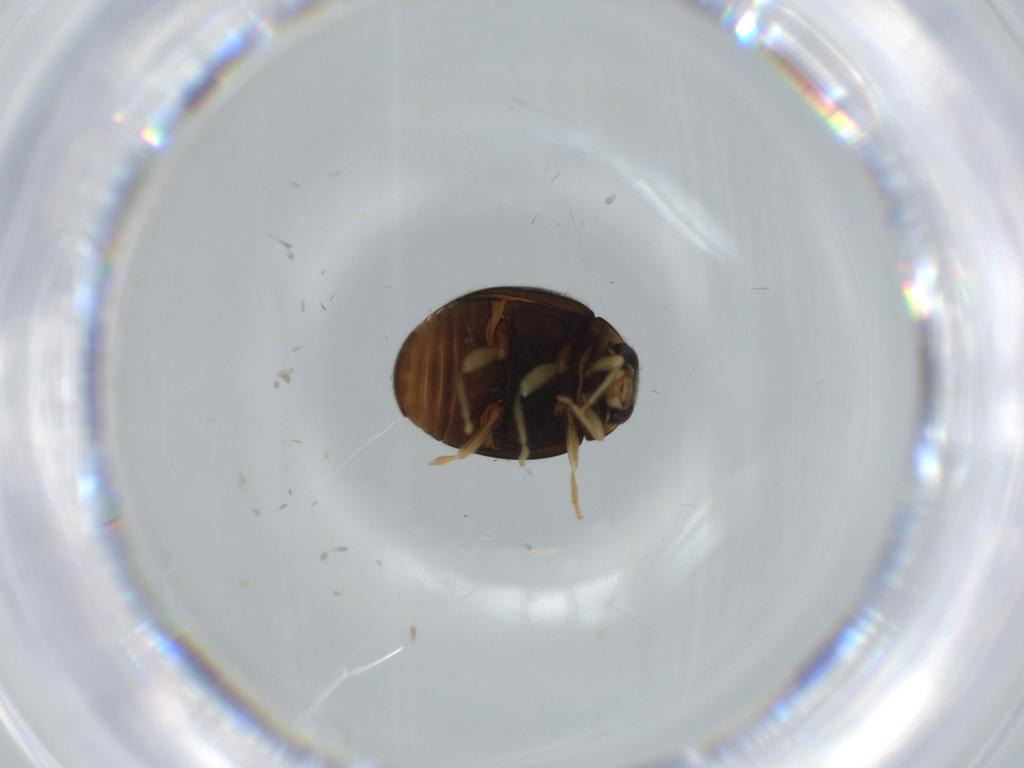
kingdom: Animalia
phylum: Arthropoda
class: Insecta
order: Coleoptera
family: Coccinellidae
